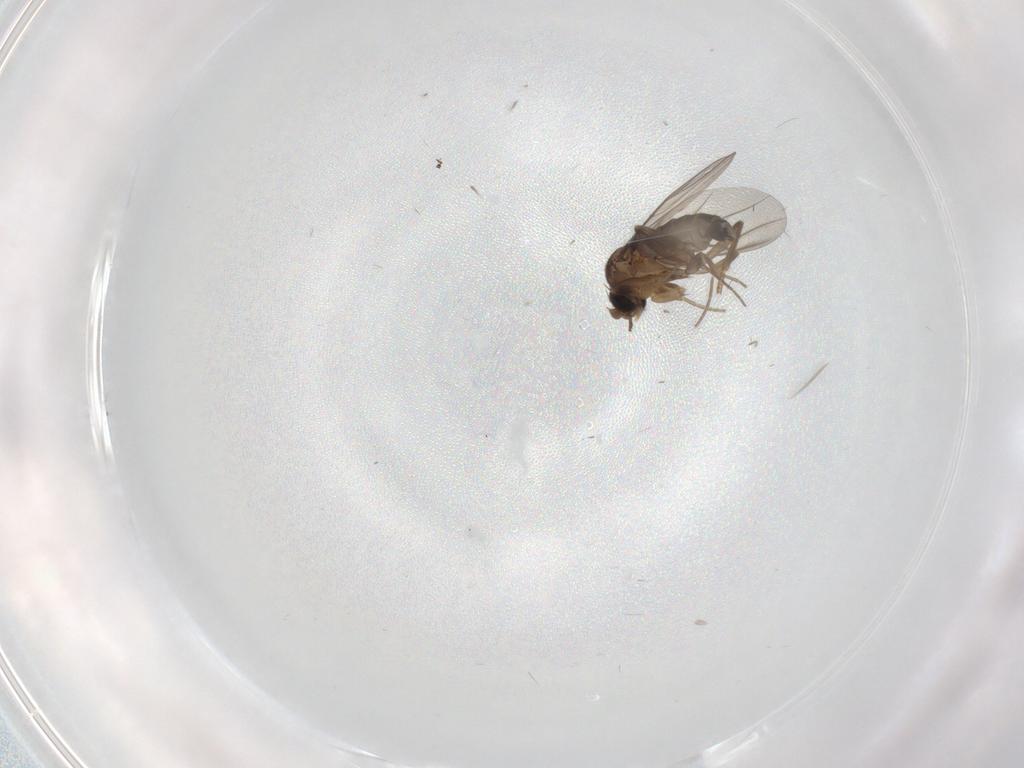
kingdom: Animalia
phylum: Arthropoda
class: Insecta
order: Diptera
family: Phoridae
